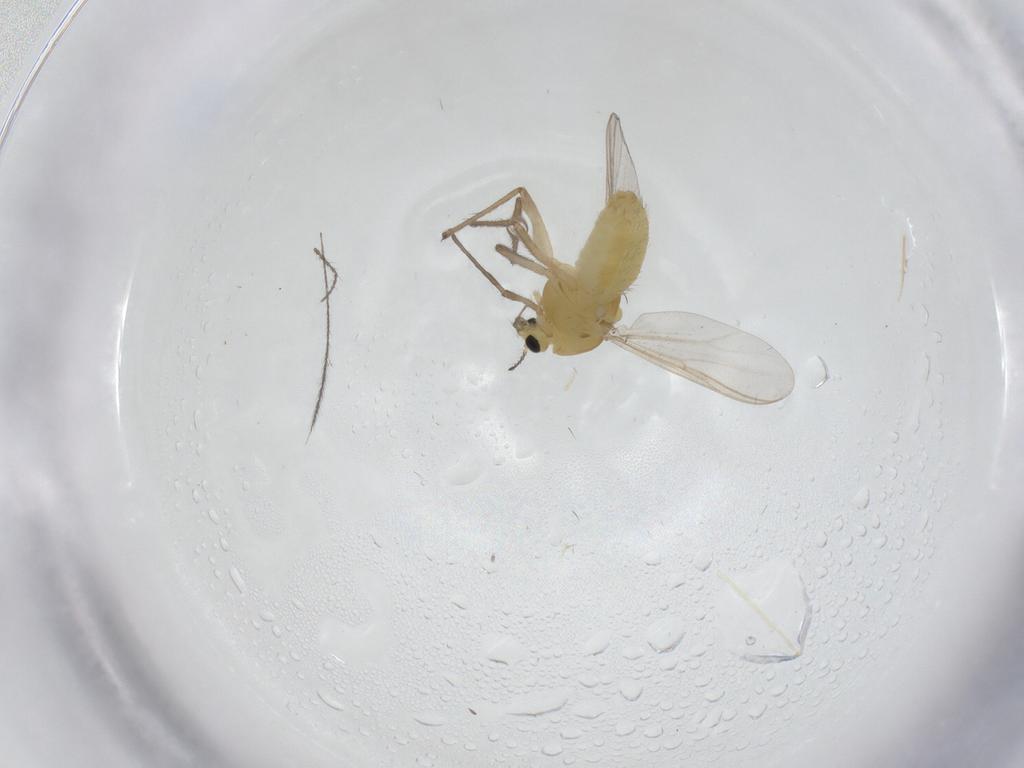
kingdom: Animalia
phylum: Arthropoda
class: Insecta
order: Diptera
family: Chironomidae
